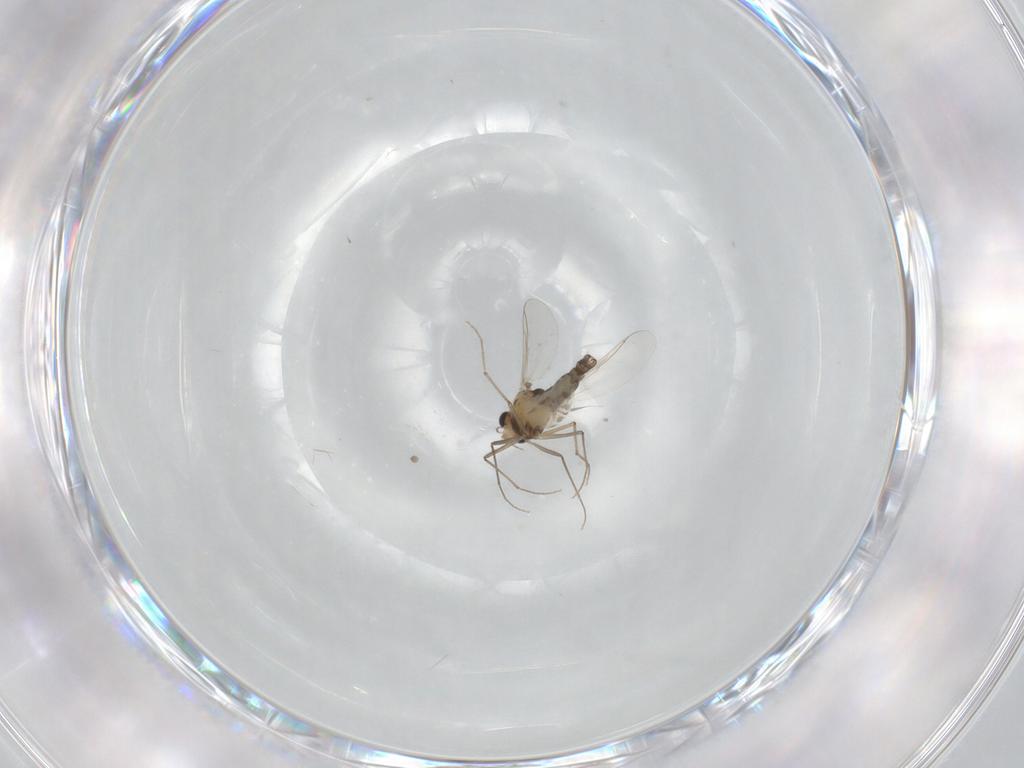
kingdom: Animalia
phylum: Arthropoda
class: Insecta
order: Diptera
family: Chironomidae
